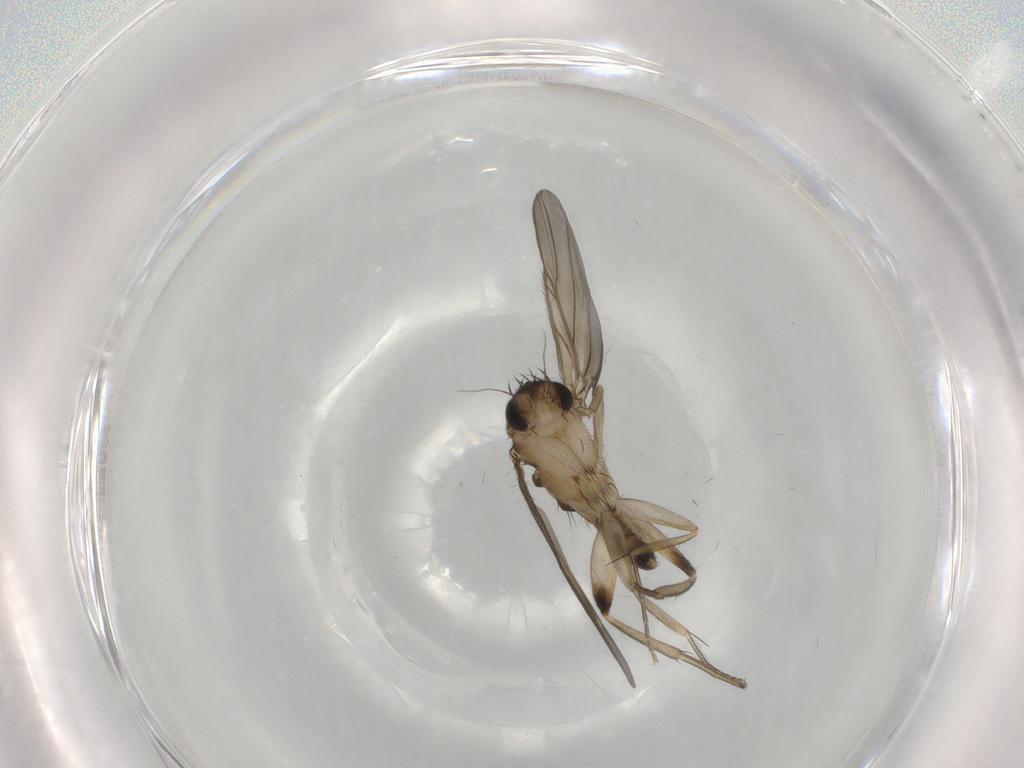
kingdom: Animalia
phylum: Arthropoda
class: Insecta
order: Diptera
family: Phoridae
